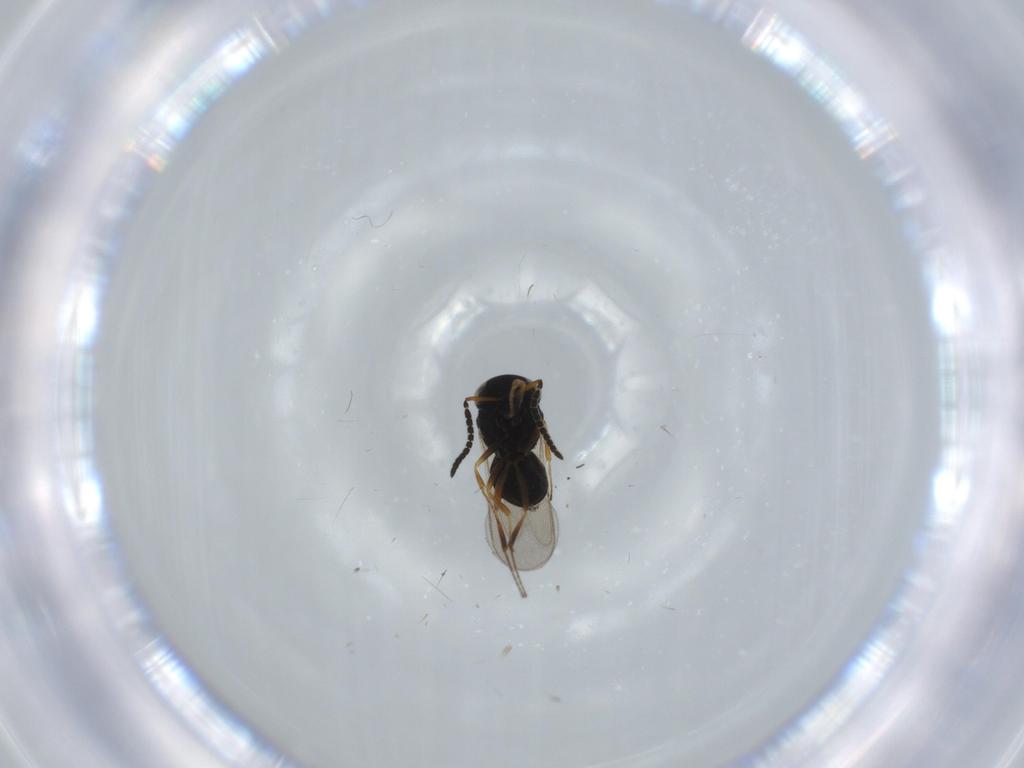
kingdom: Animalia
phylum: Arthropoda
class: Insecta
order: Hymenoptera
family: Scelionidae
